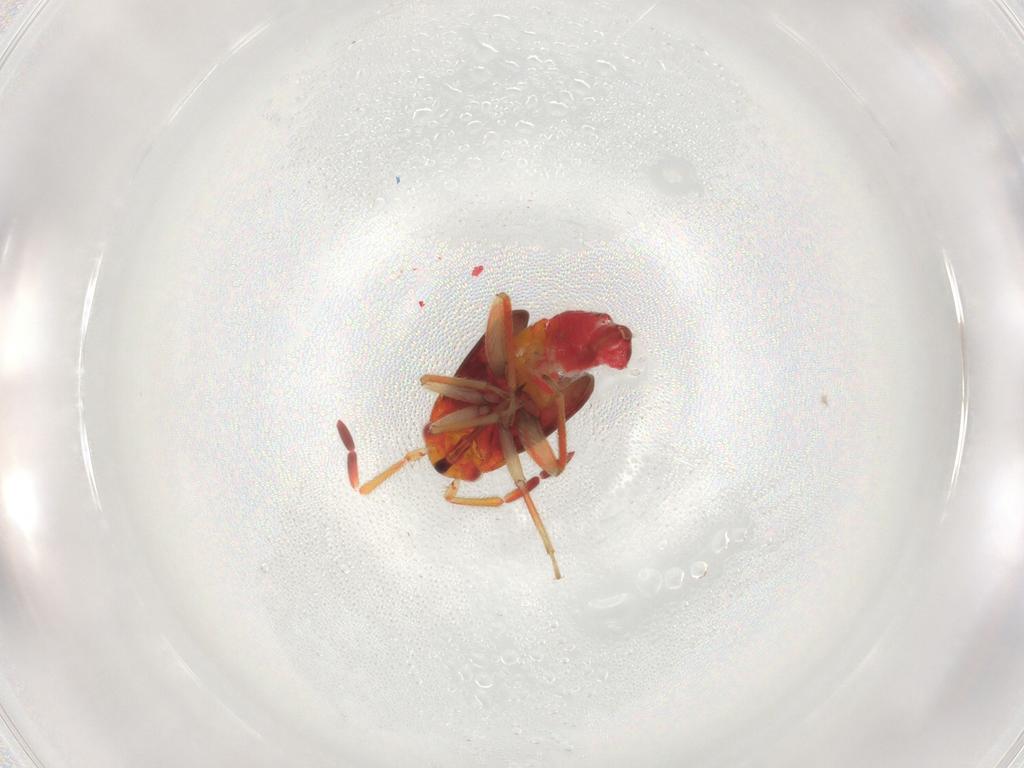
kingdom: Animalia
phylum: Arthropoda
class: Insecta
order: Hemiptera
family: Miridae
